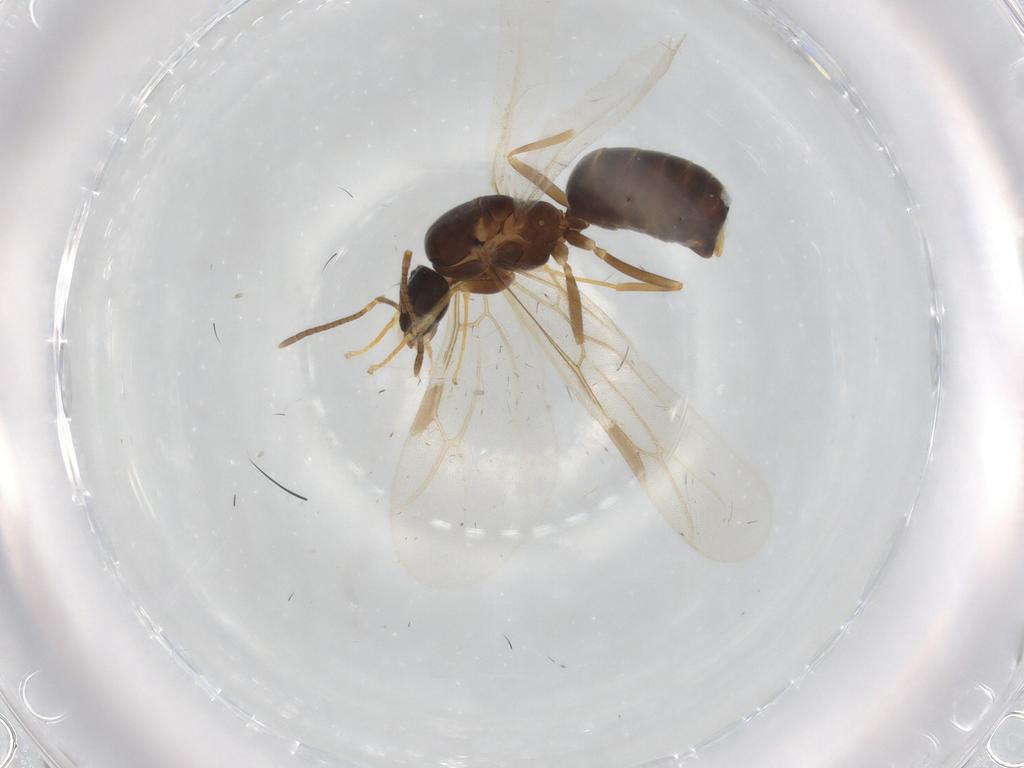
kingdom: Animalia
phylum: Arthropoda
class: Insecta
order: Hymenoptera
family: Formicidae
